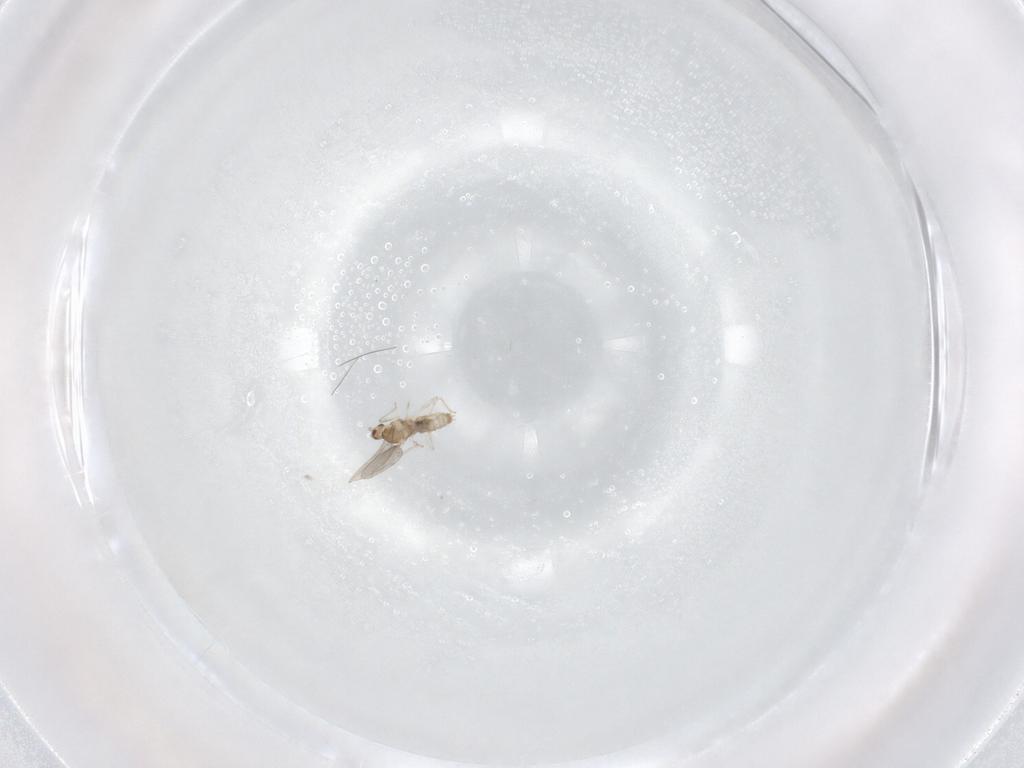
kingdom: Animalia
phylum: Arthropoda
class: Insecta
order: Diptera
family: Cecidomyiidae
